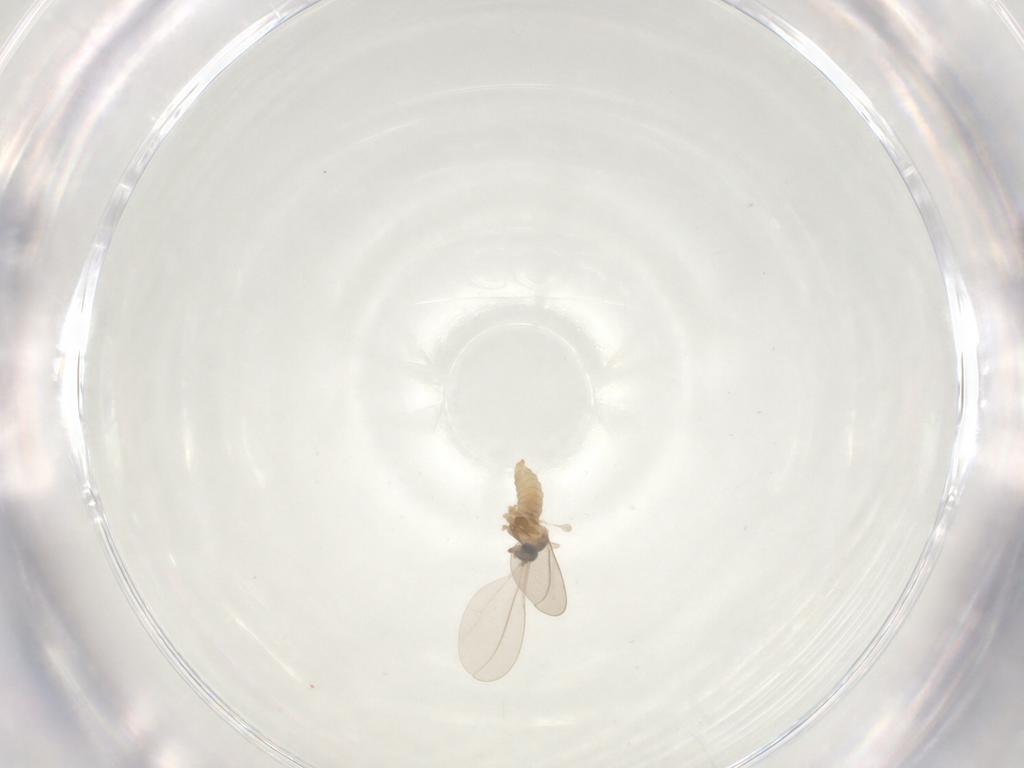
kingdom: Animalia
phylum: Arthropoda
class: Insecta
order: Diptera
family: Cecidomyiidae
